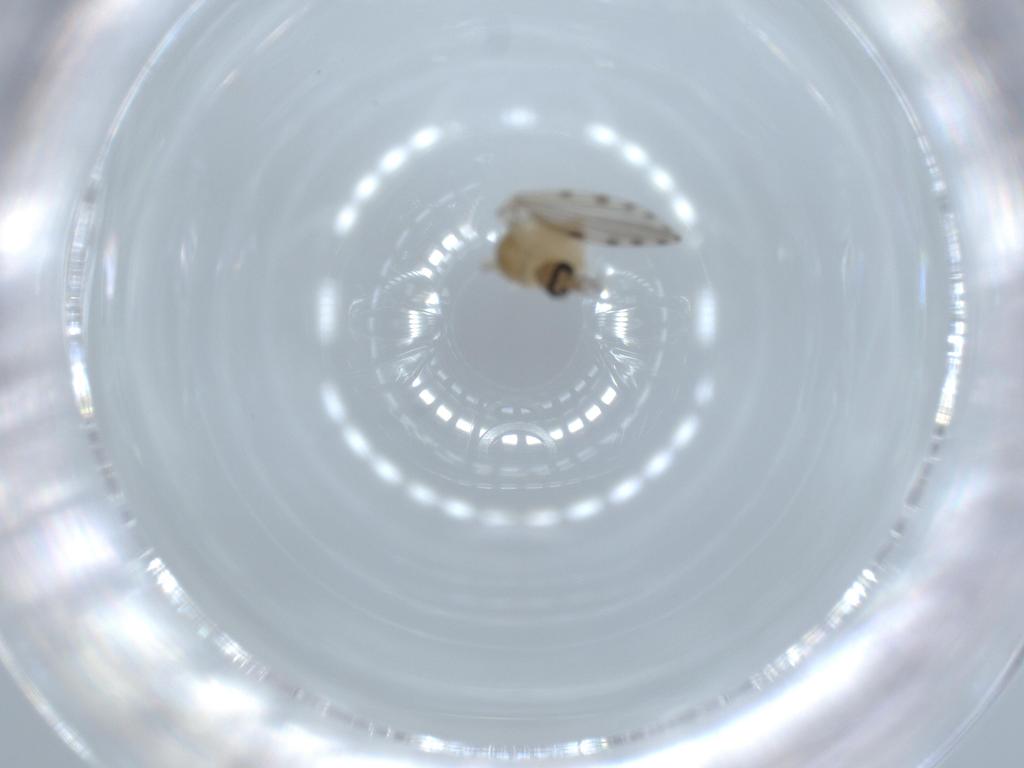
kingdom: Animalia
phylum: Arthropoda
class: Insecta
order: Diptera
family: Psychodidae
